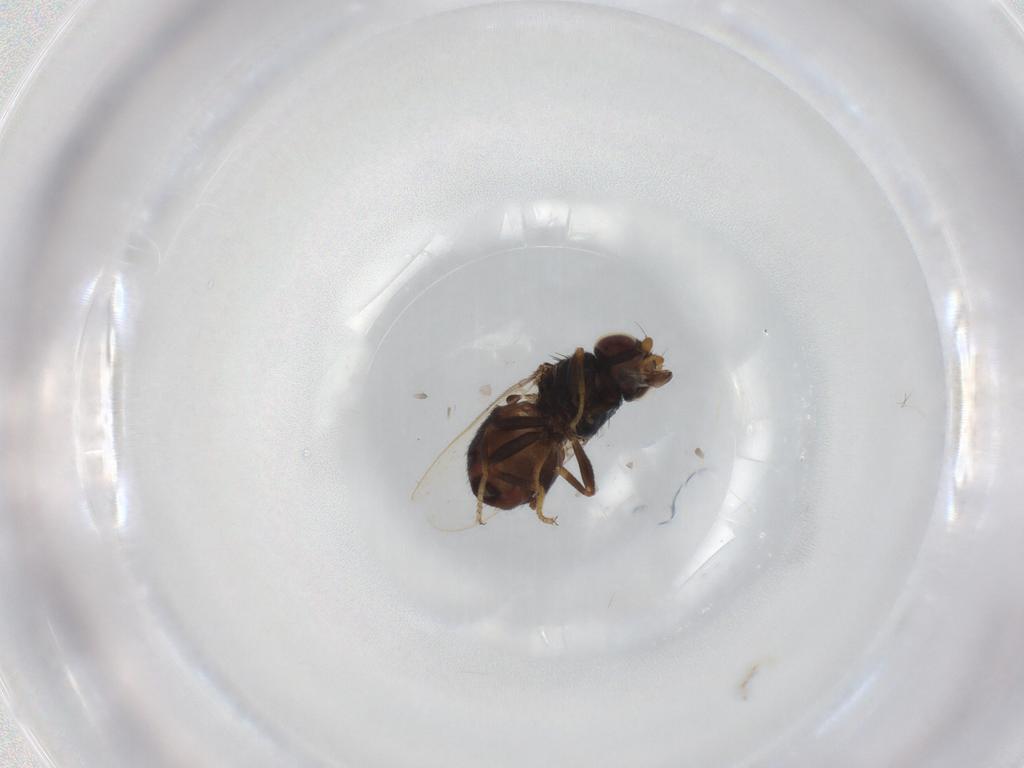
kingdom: Animalia
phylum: Arthropoda
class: Insecta
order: Diptera
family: Chloropidae
